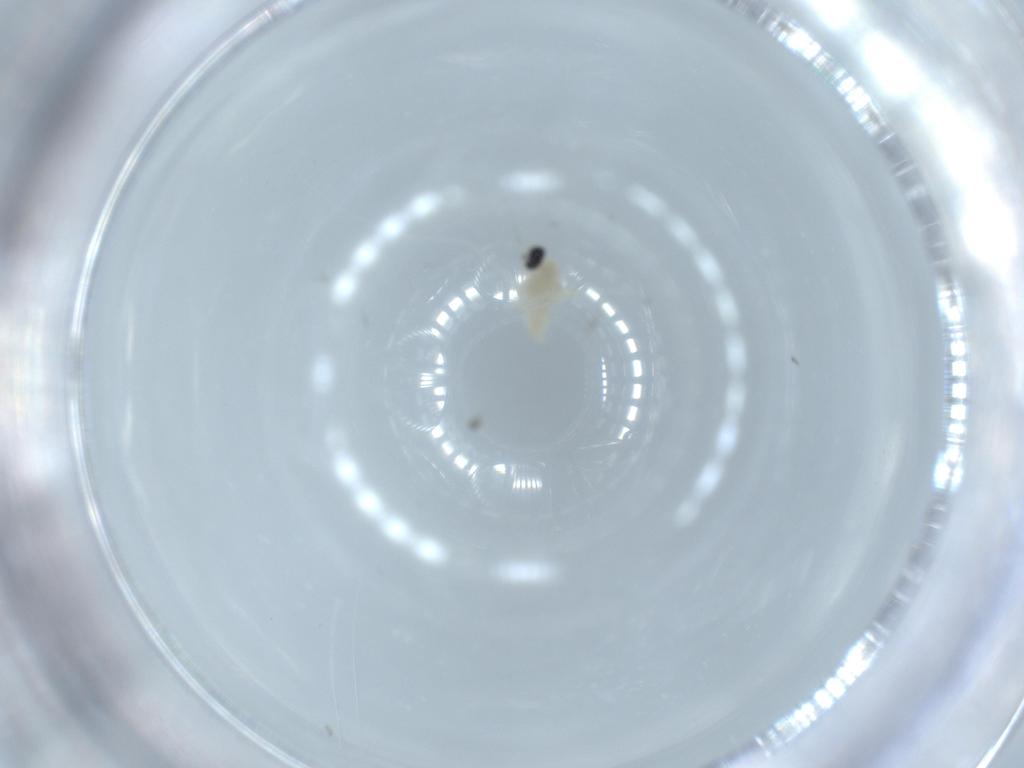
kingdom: Animalia
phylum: Arthropoda
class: Insecta
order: Diptera
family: Cecidomyiidae
